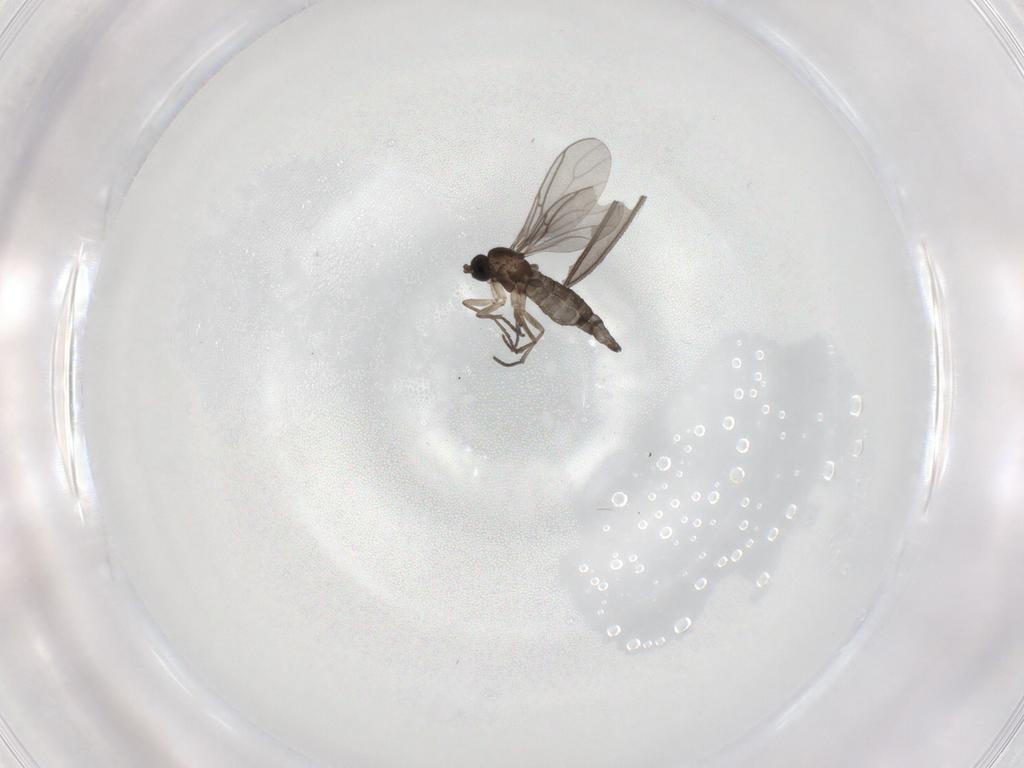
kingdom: Animalia
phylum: Arthropoda
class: Insecta
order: Diptera
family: Sciaridae
